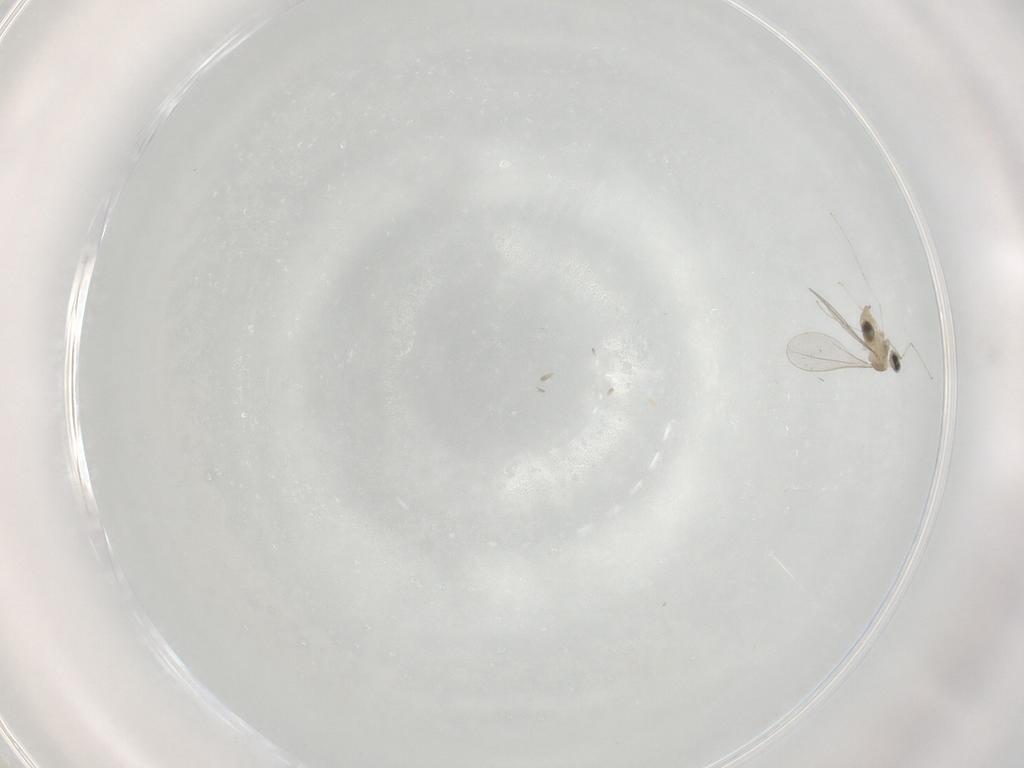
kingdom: Animalia
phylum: Arthropoda
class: Insecta
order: Diptera
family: Cecidomyiidae
